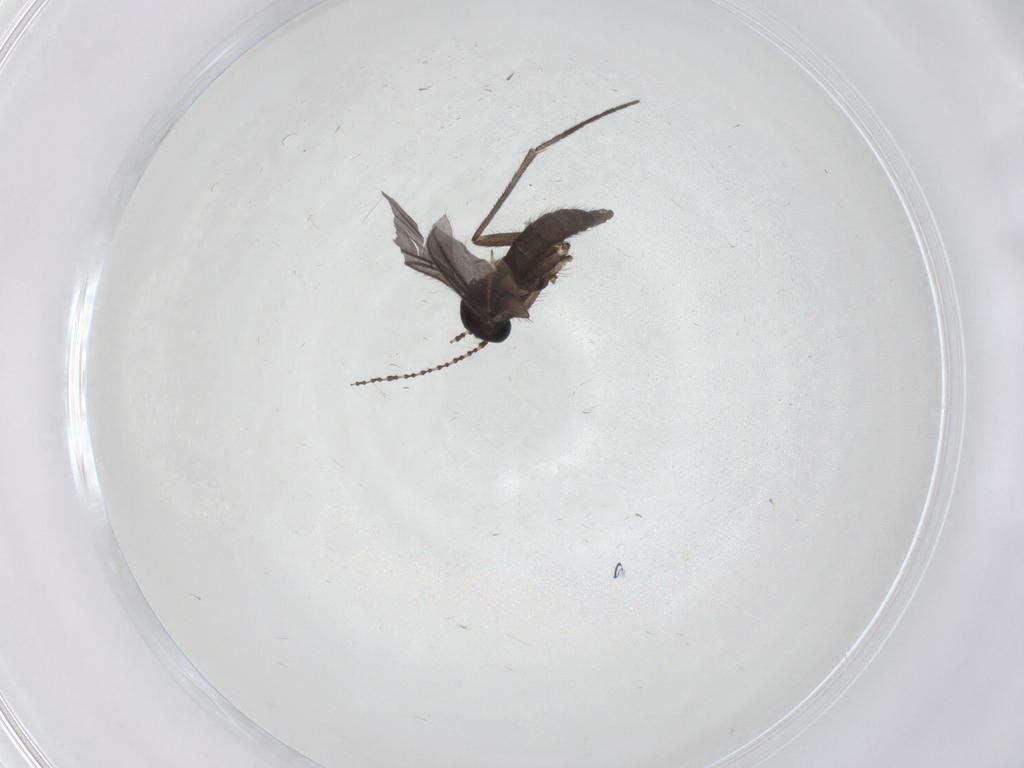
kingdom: Animalia
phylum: Arthropoda
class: Insecta
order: Diptera
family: Sciaridae
